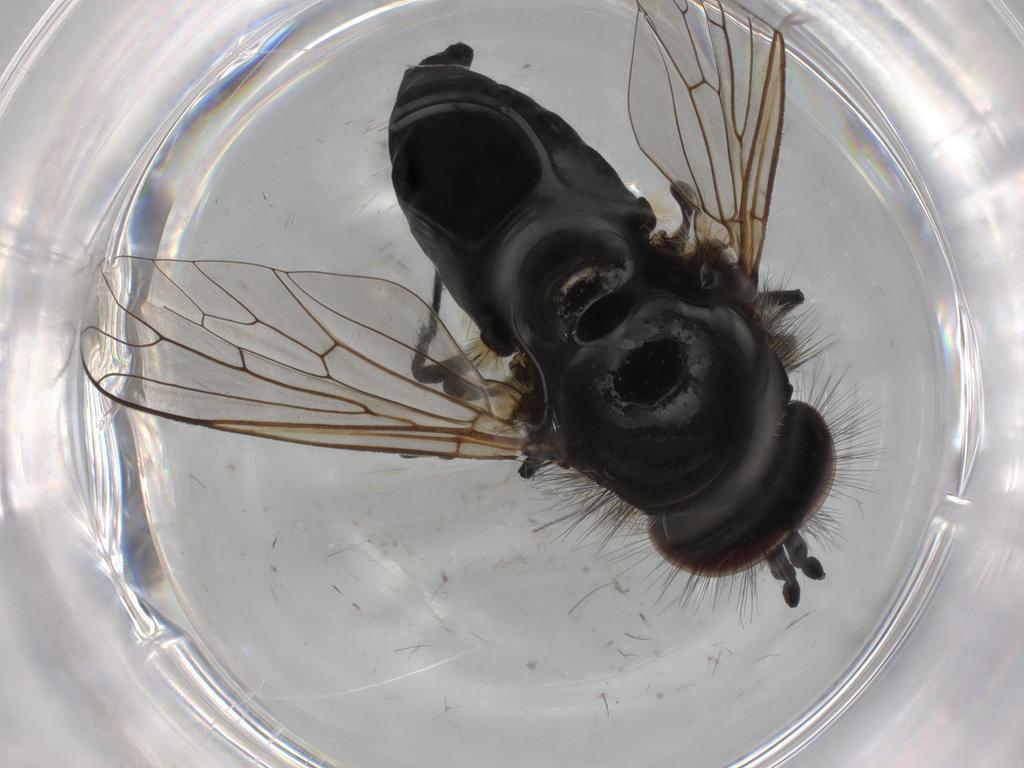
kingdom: Animalia
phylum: Arthropoda
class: Insecta
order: Diptera
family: Bombyliidae
